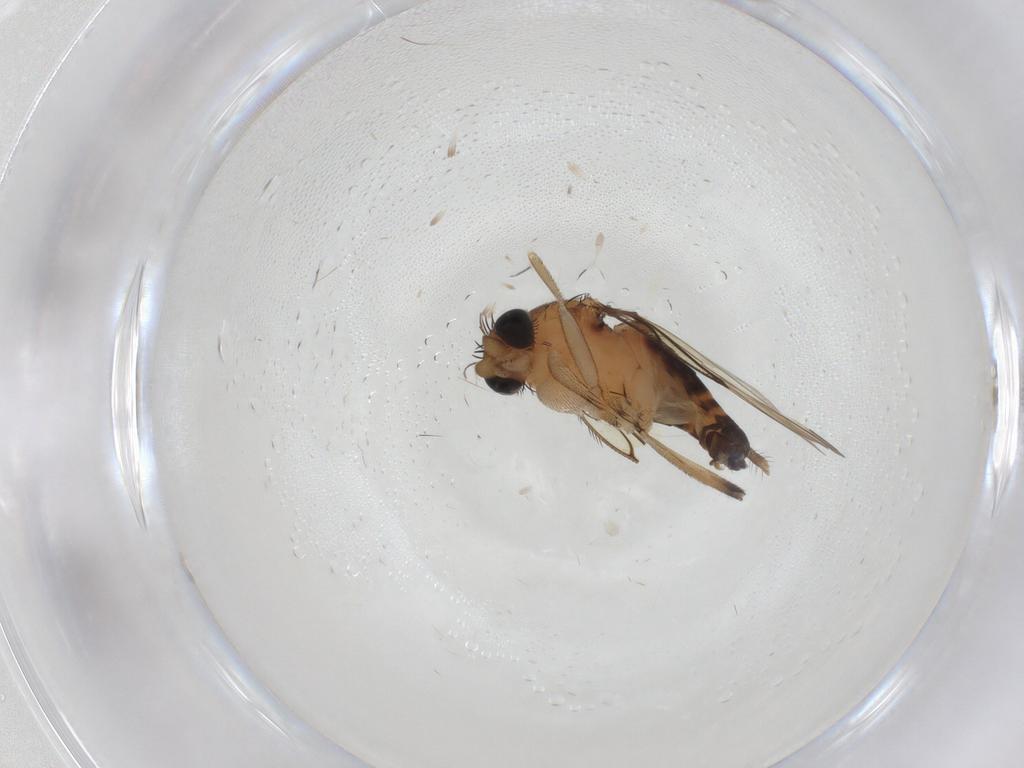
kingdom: Animalia
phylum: Arthropoda
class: Insecta
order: Diptera
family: Phoridae
